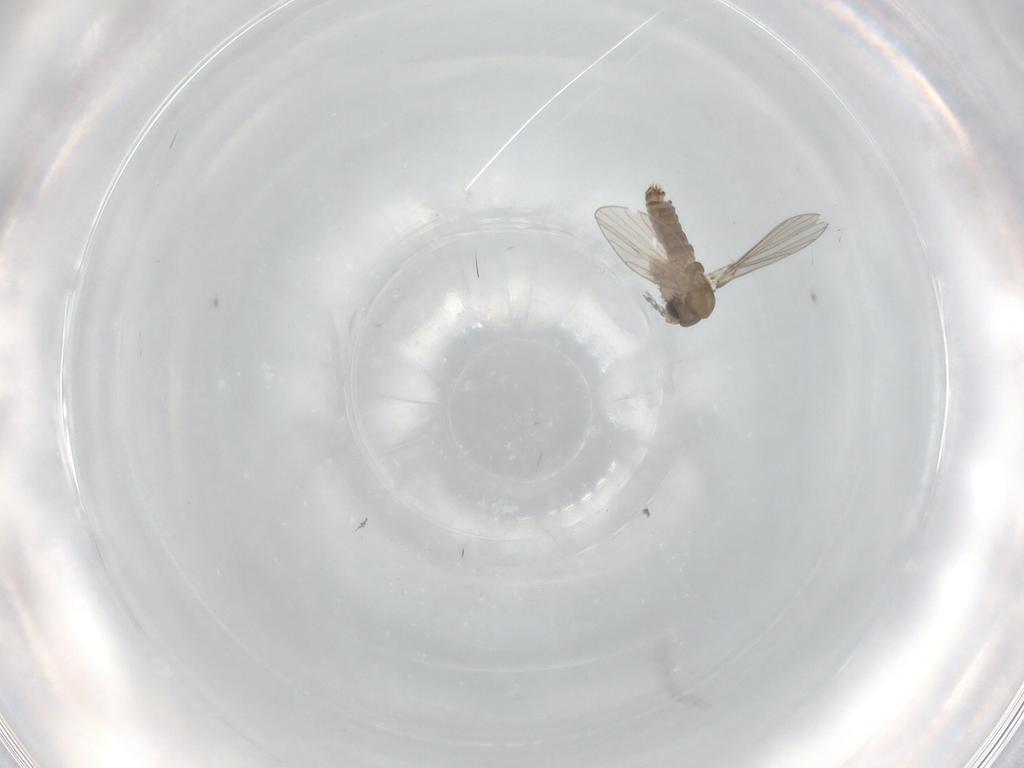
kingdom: Animalia
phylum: Arthropoda
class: Insecta
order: Diptera
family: Psychodidae
